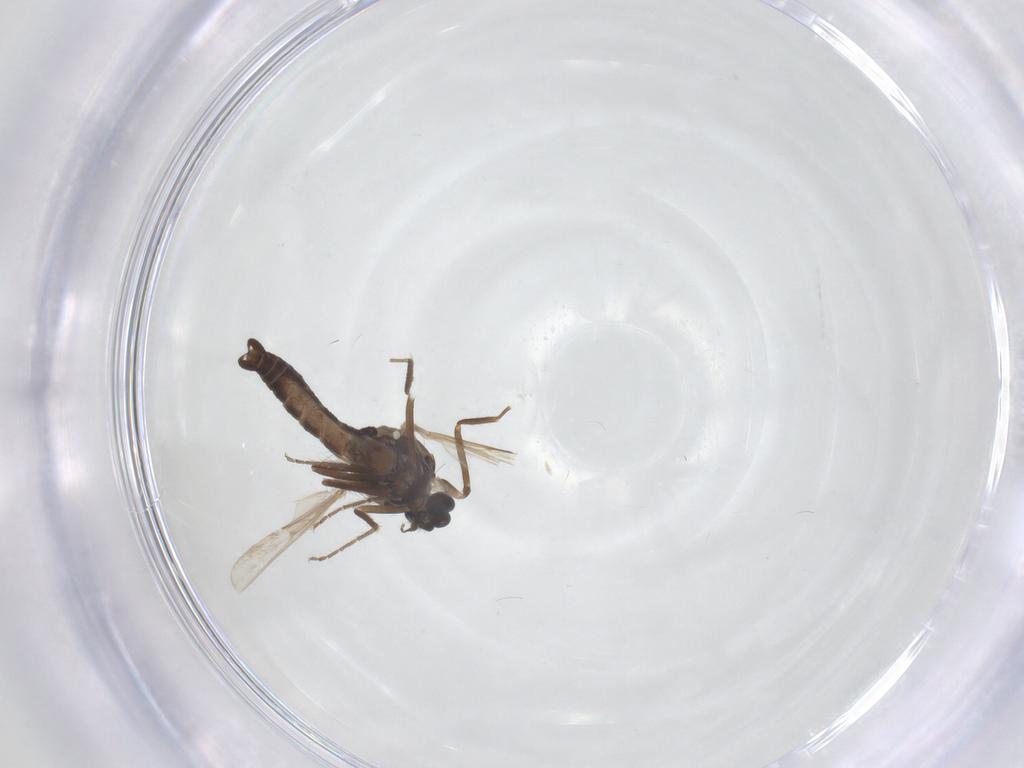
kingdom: Animalia
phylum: Arthropoda
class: Insecta
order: Diptera
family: Ceratopogonidae
